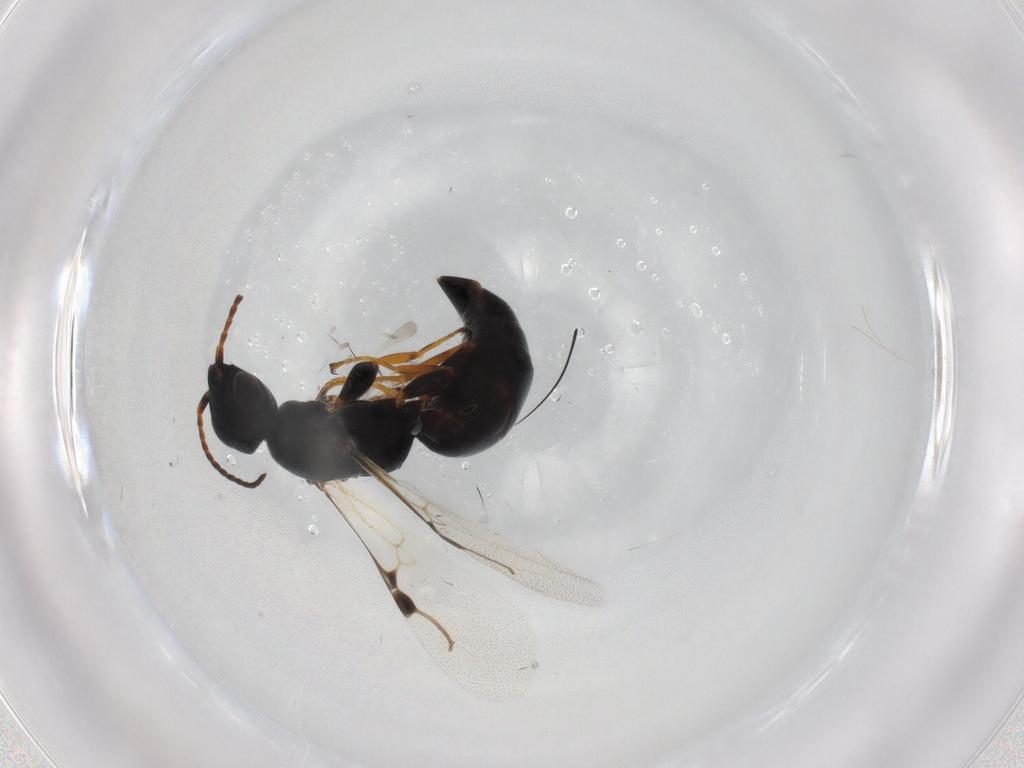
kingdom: Animalia
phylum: Arthropoda
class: Insecta
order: Hymenoptera
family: Bethylidae
